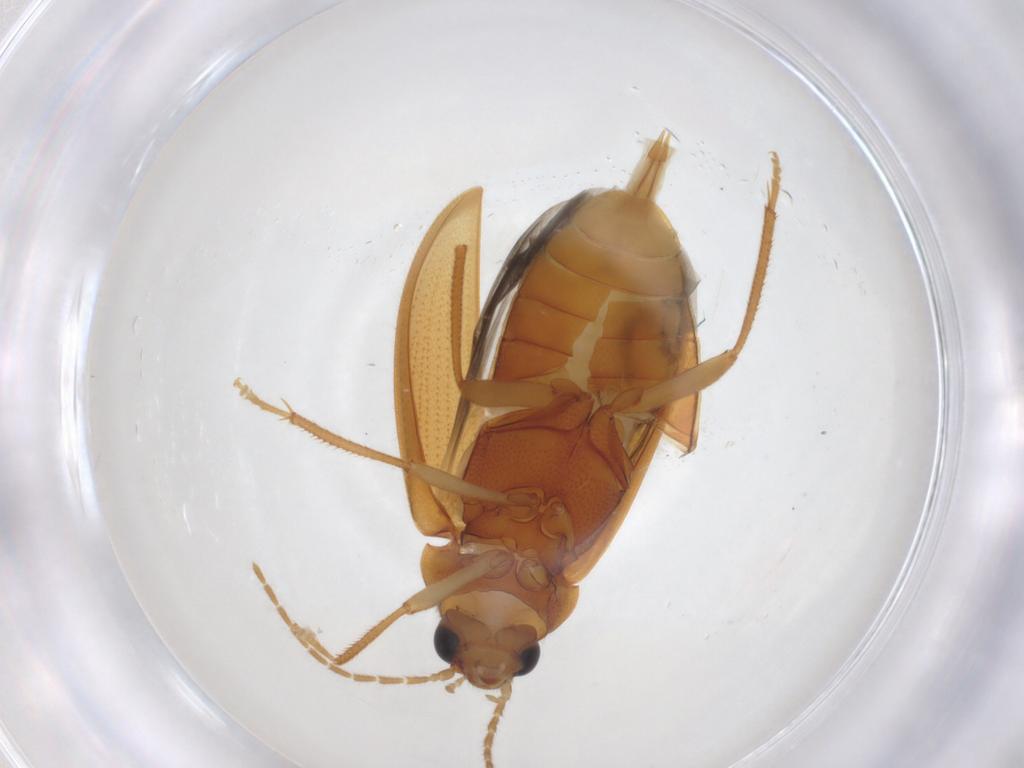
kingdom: Animalia
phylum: Arthropoda
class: Insecta
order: Coleoptera
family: Ptilodactylidae
